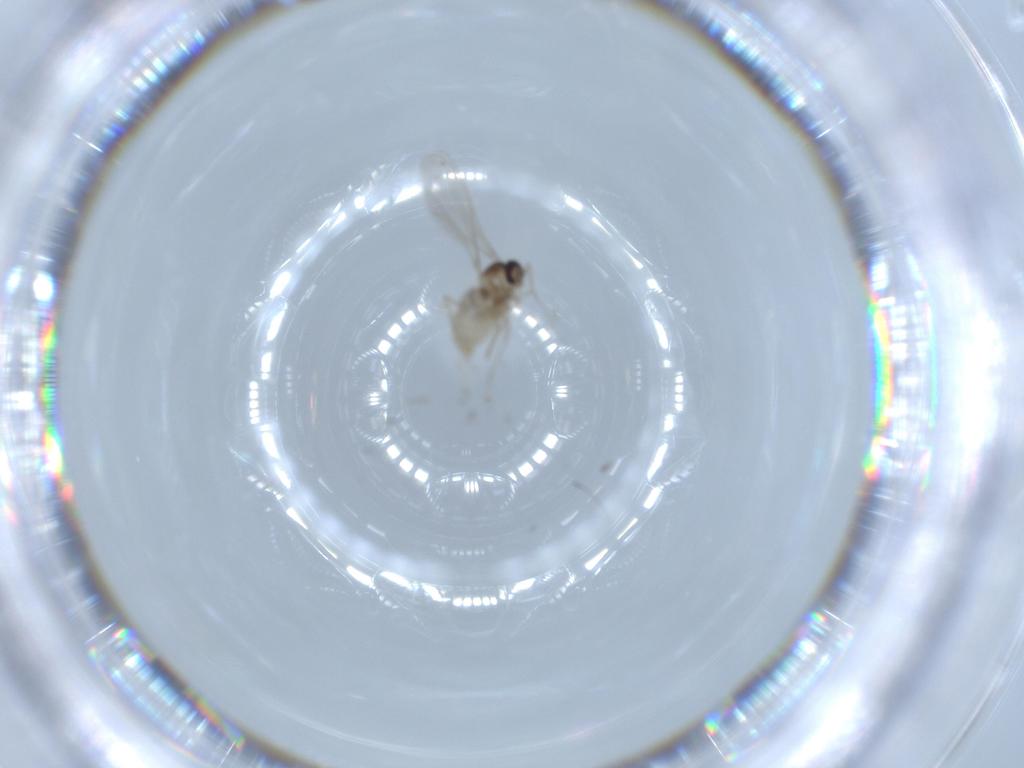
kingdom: Animalia
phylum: Arthropoda
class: Insecta
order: Diptera
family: Hybotidae
